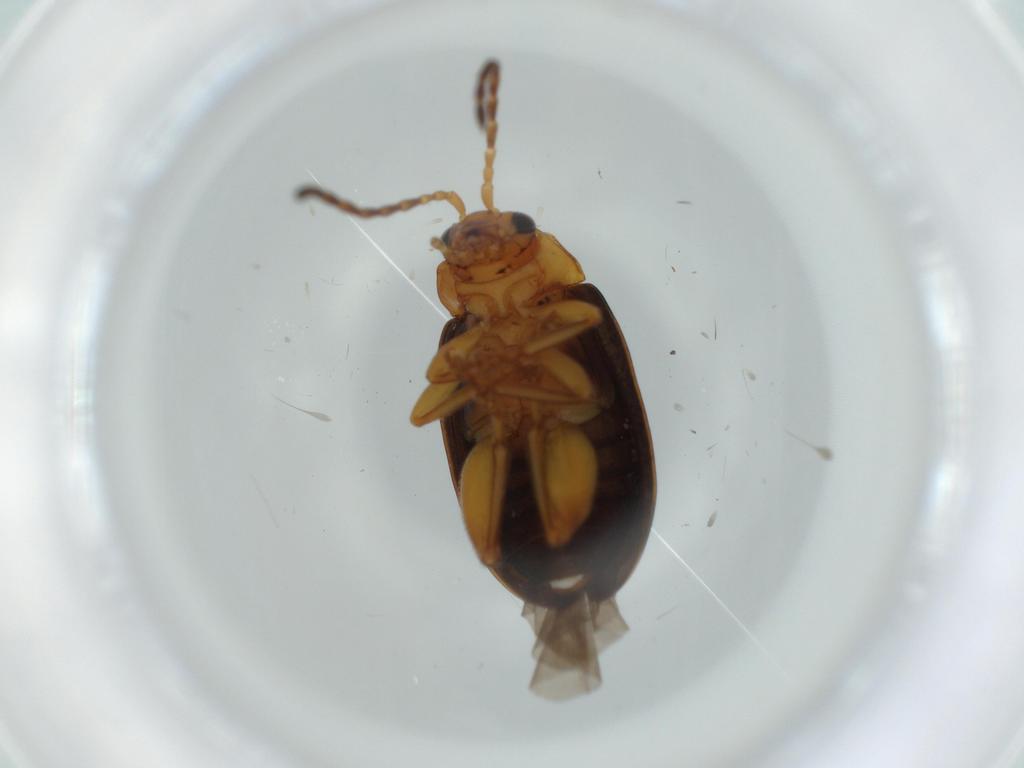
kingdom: Animalia
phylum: Arthropoda
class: Insecta
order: Coleoptera
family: Chrysomelidae
